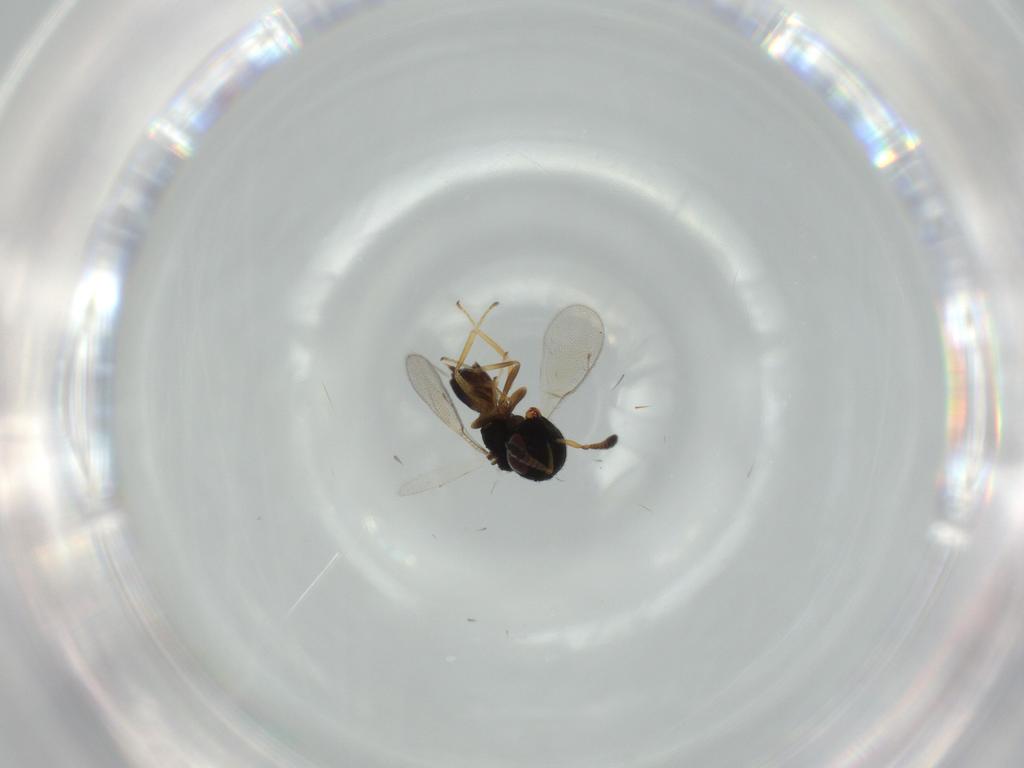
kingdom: Animalia
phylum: Arthropoda
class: Insecta
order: Hymenoptera
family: Pteromalidae
